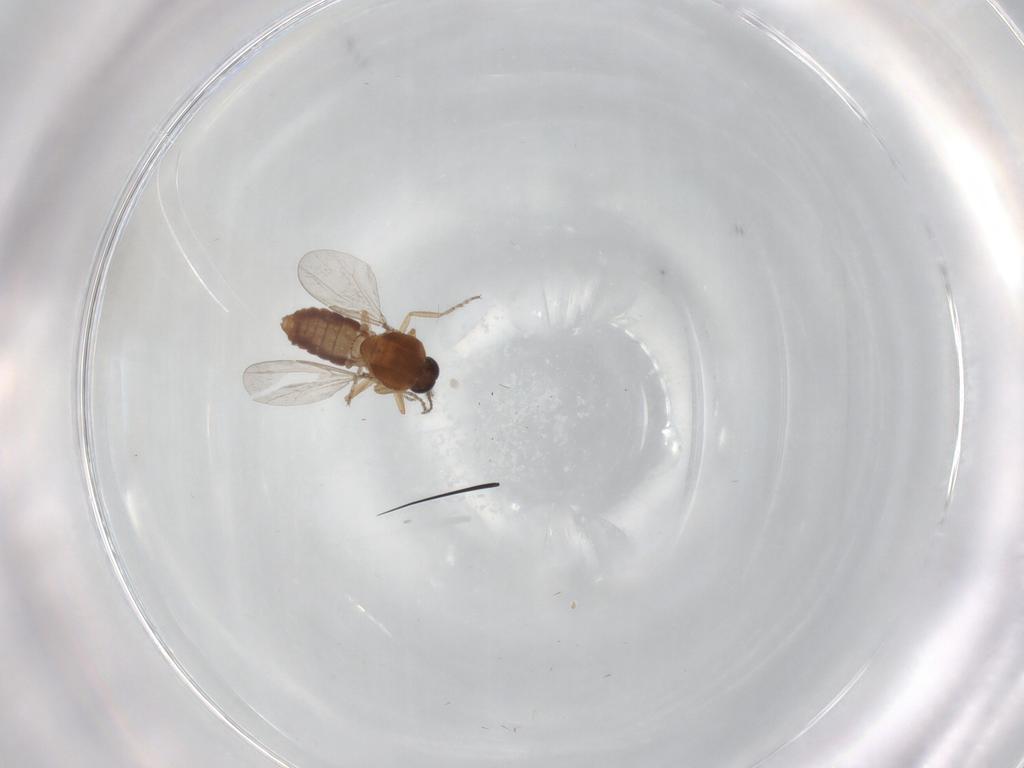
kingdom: Animalia
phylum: Arthropoda
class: Insecta
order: Diptera
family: Ceratopogonidae
